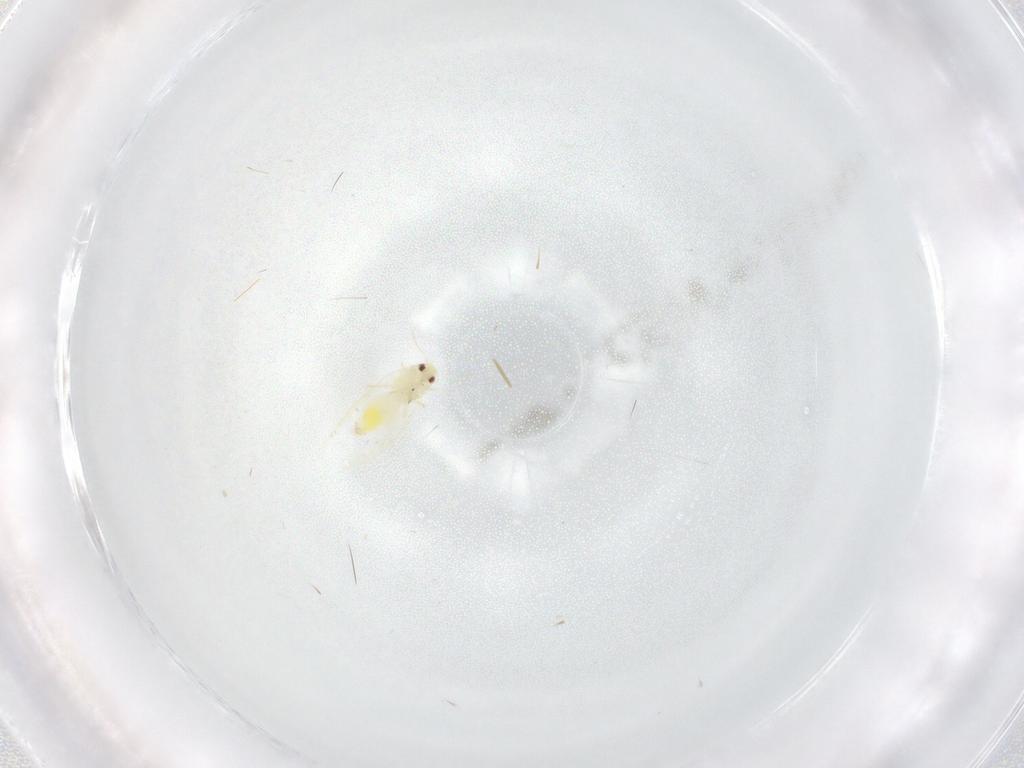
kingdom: Animalia
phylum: Arthropoda
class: Insecta
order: Hemiptera
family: Aleyrodidae
